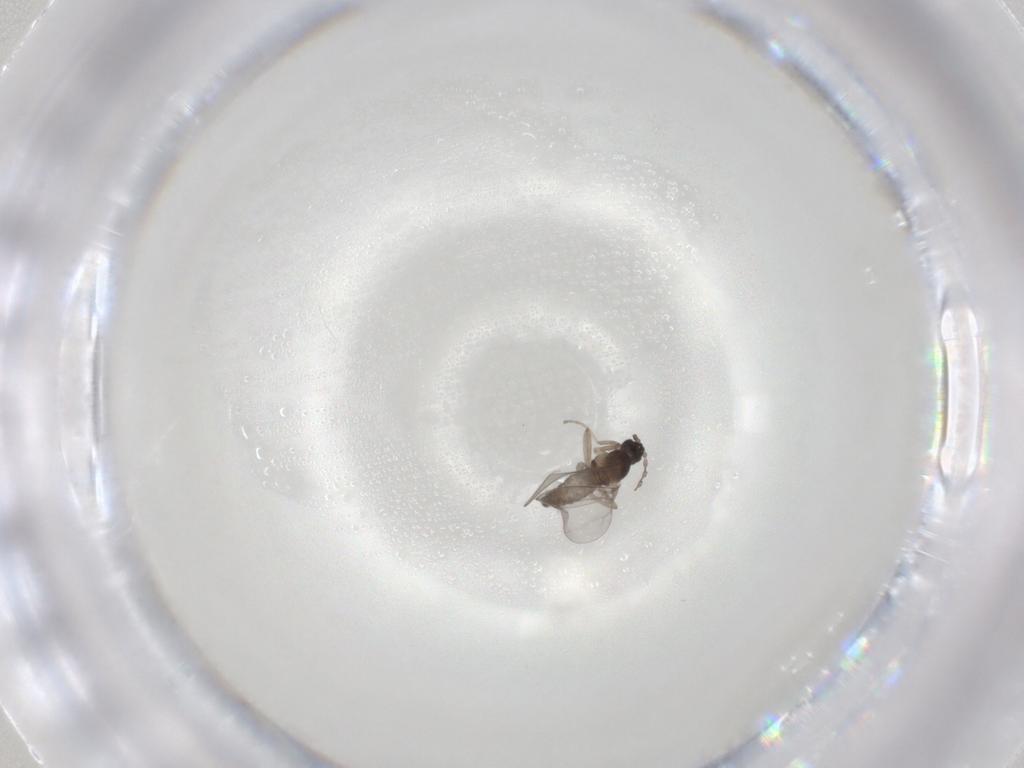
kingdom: Animalia
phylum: Arthropoda
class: Insecta
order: Diptera
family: Cecidomyiidae
